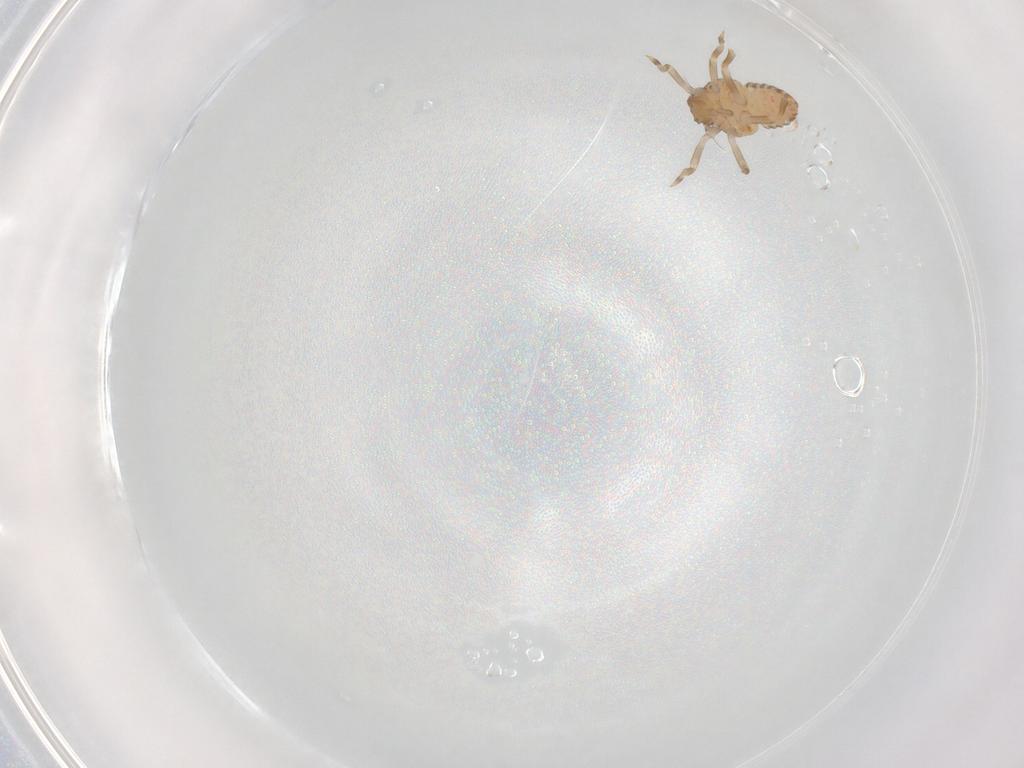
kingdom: Animalia
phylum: Arthropoda
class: Insecta
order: Hemiptera
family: Flatidae
